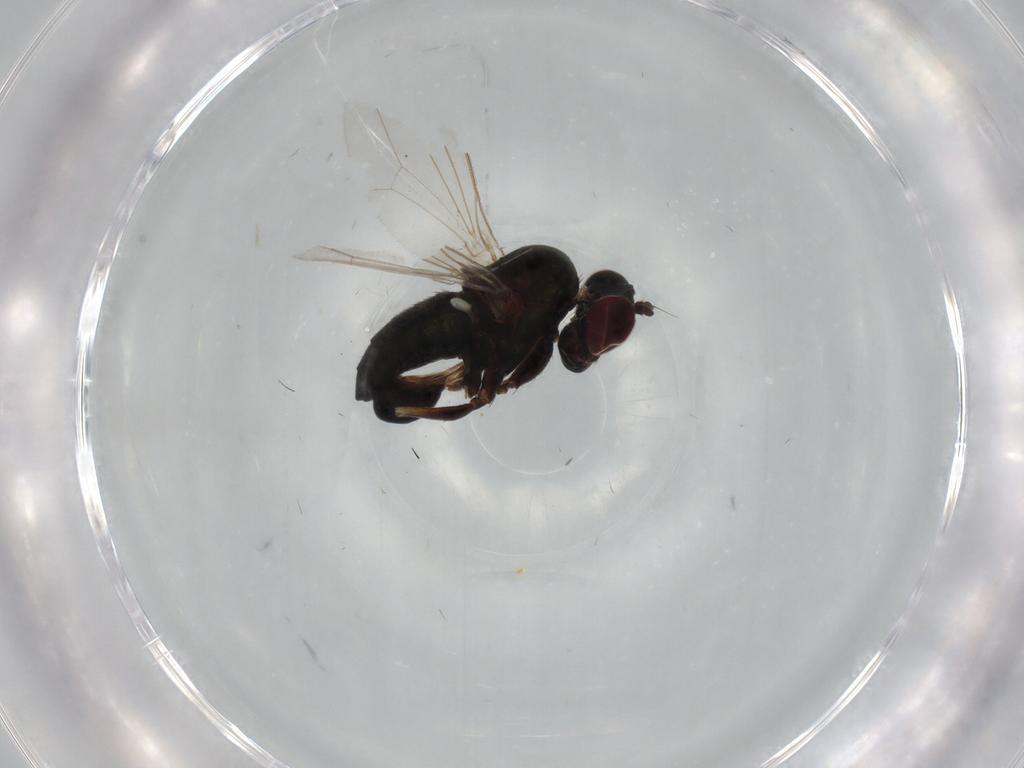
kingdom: Animalia
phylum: Arthropoda
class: Insecta
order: Diptera
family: Dolichopodidae
